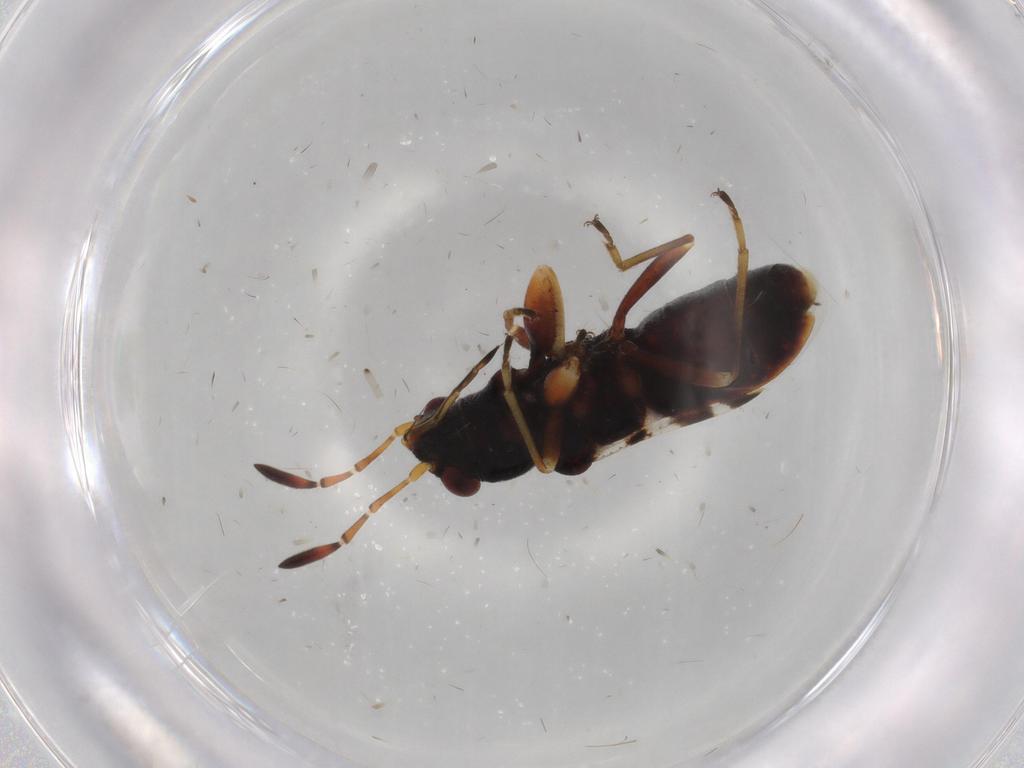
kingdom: Animalia
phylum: Arthropoda
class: Insecta
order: Hemiptera
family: Rhyparochromidae
